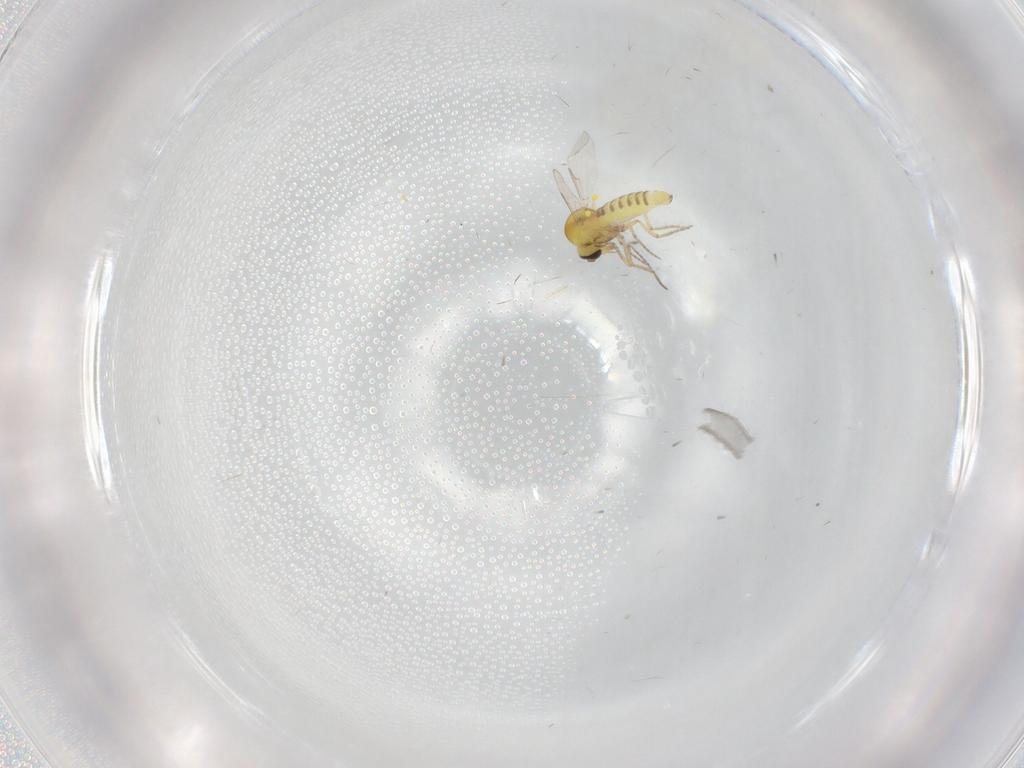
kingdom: Animalia
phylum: Arthropoda
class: Insecta
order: Diptera
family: Ceratopogonidae
